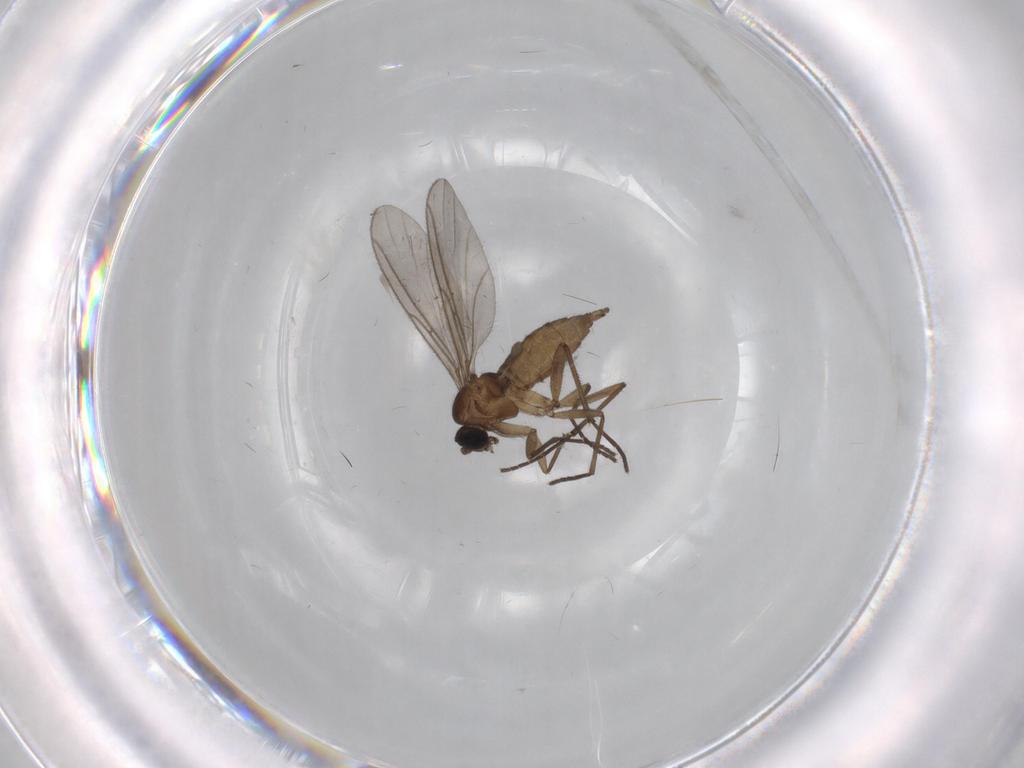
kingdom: Animalia
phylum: Arthropoda
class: Insecta
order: Diptera
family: Sciaridae
